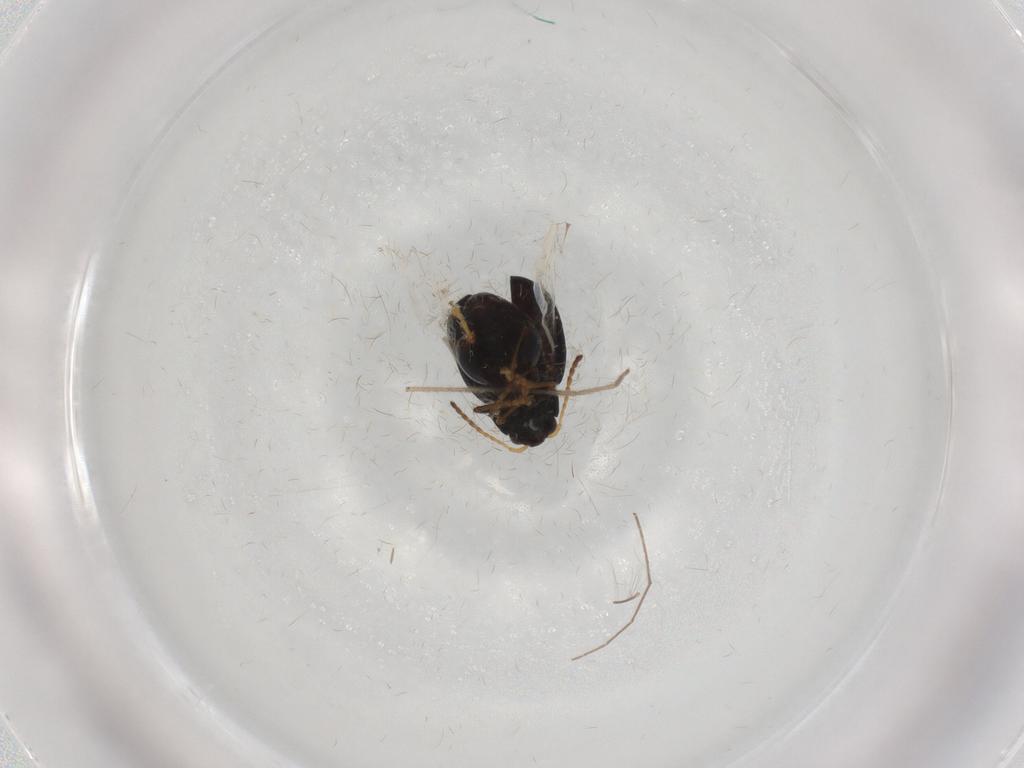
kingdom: Animalia
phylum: Arthropoda
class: Insecta
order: Coleoptera
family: Chrysomelidae
